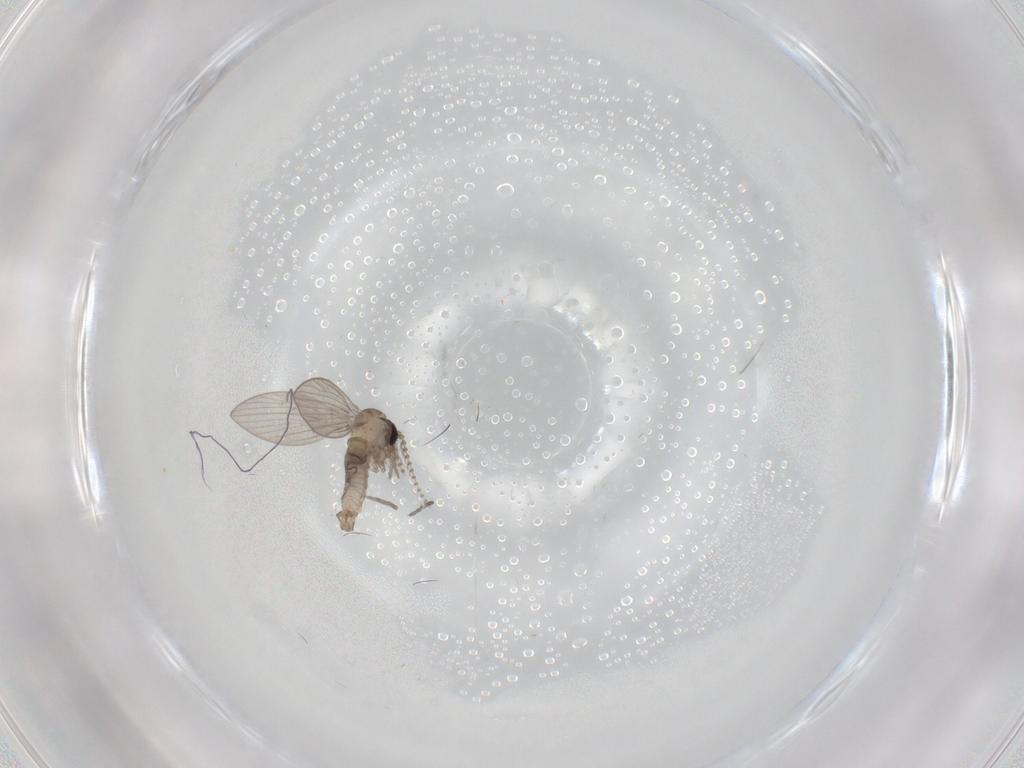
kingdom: Animalia
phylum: Arthropoda
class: Insecta
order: Diptera
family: Psychodidae
